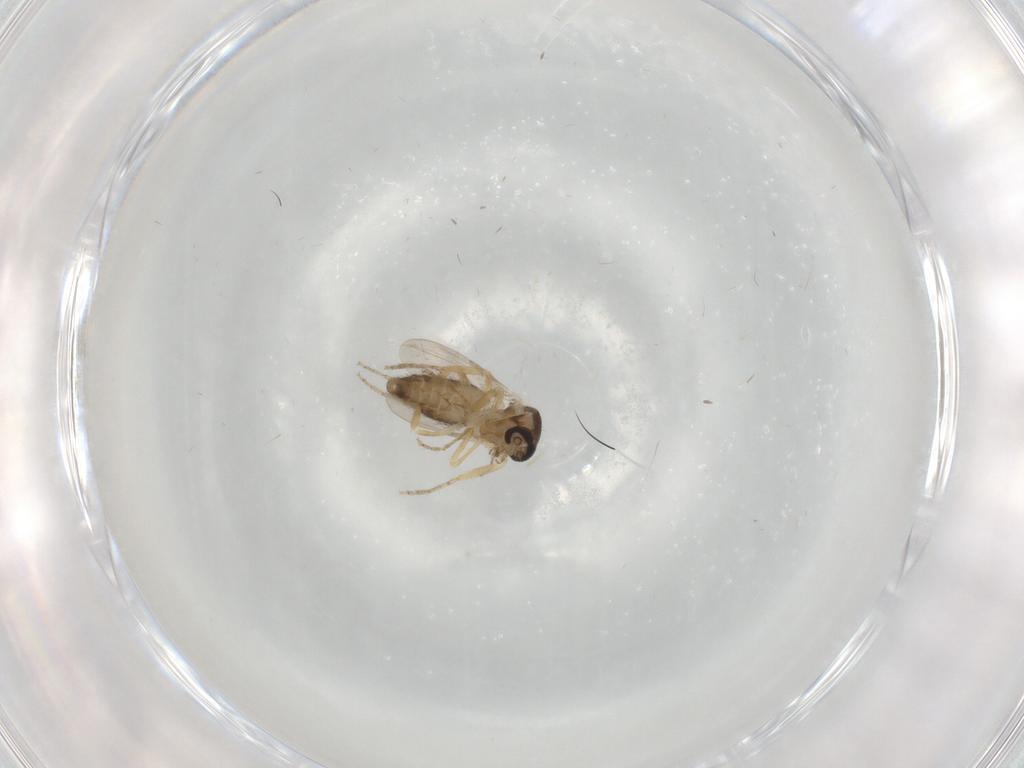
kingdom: Animalia
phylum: Arthropoda
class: Insecta
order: Diptera
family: Ceratopogonidae
